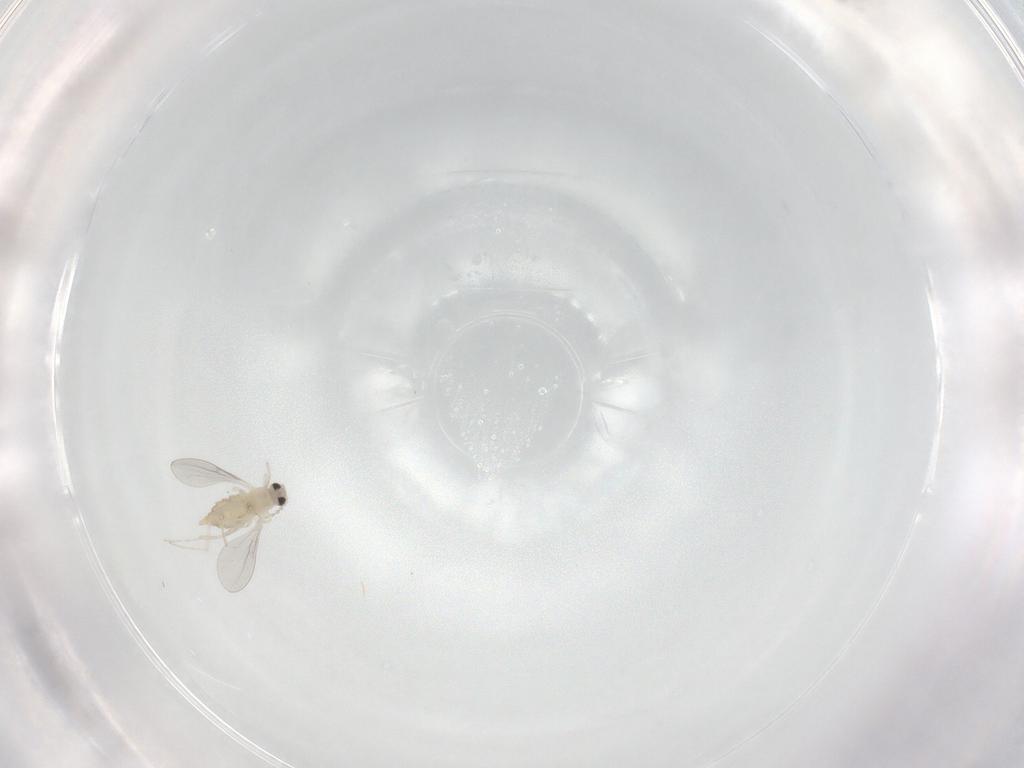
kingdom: Animalia
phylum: Arthropoda
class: Insecta
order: Diptera
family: Cecidomyiidae
